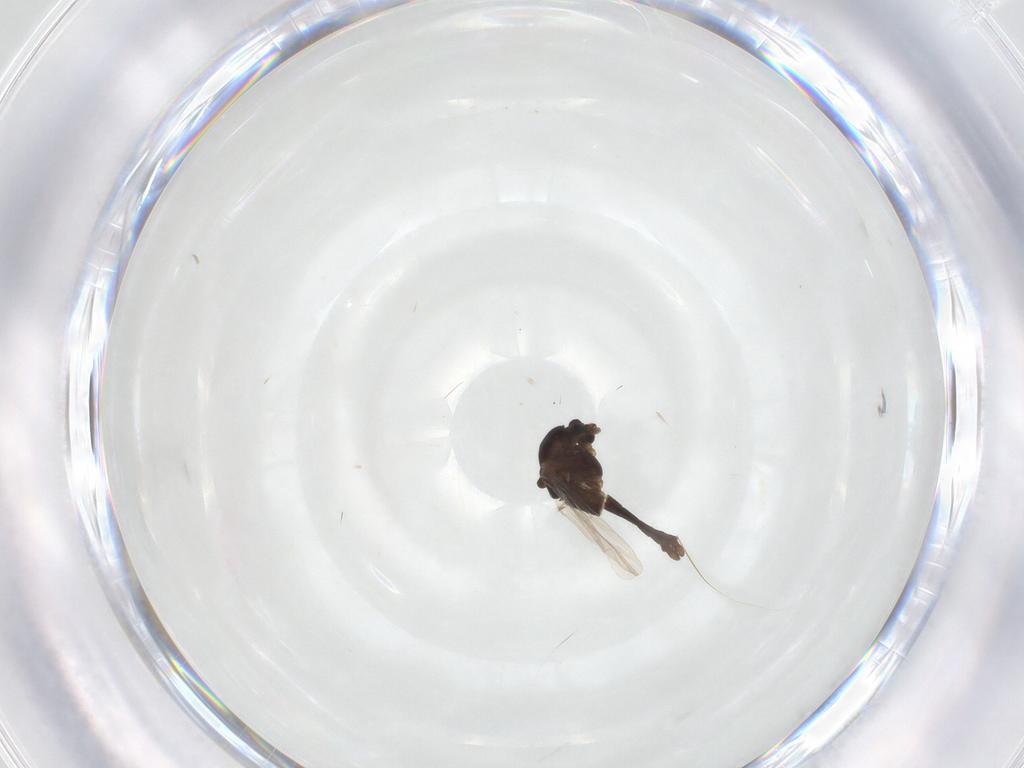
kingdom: Animalia
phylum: Arthropoda
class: Insecta
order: Diptera
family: Chironomidae
